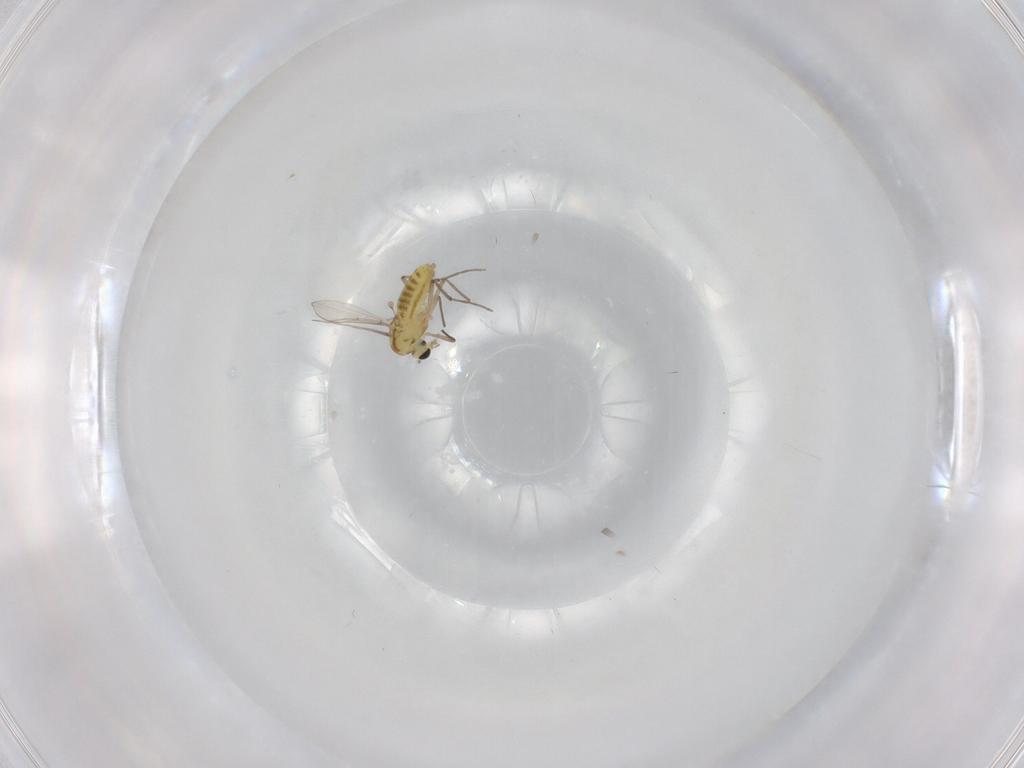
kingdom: Animalia
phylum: Arthropoda
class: Insecta
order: Diptera
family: Chironomidae
